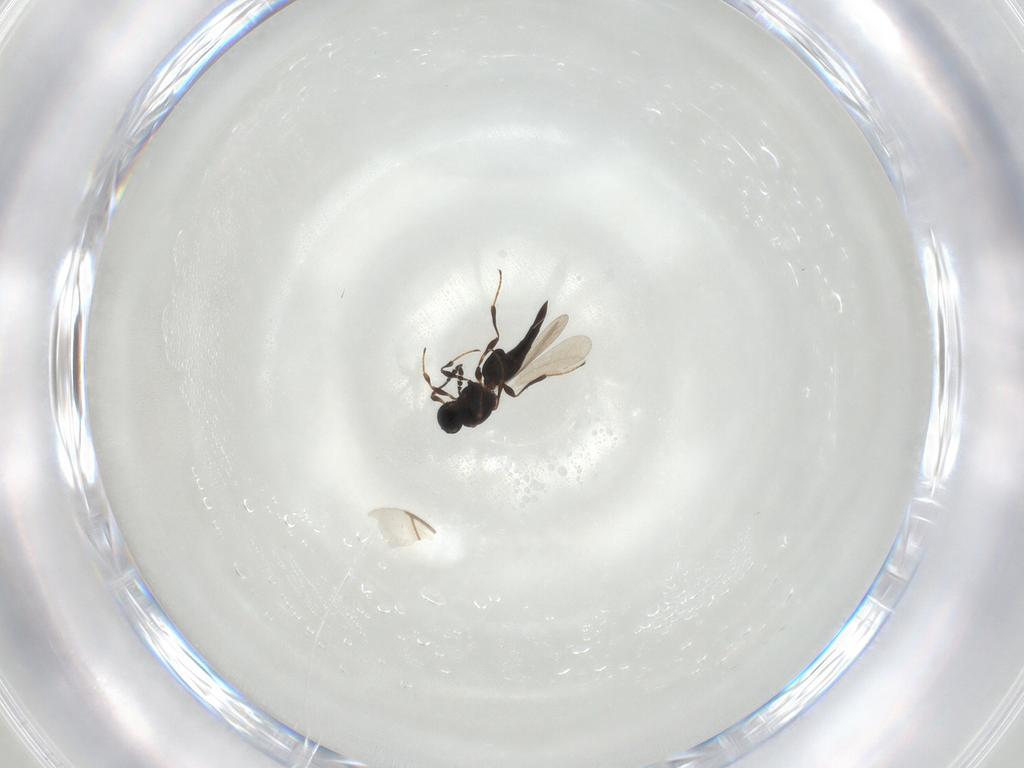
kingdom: Animalia
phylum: Arthropoda
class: Insecta
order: Hymenoptera
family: Platygastridae
